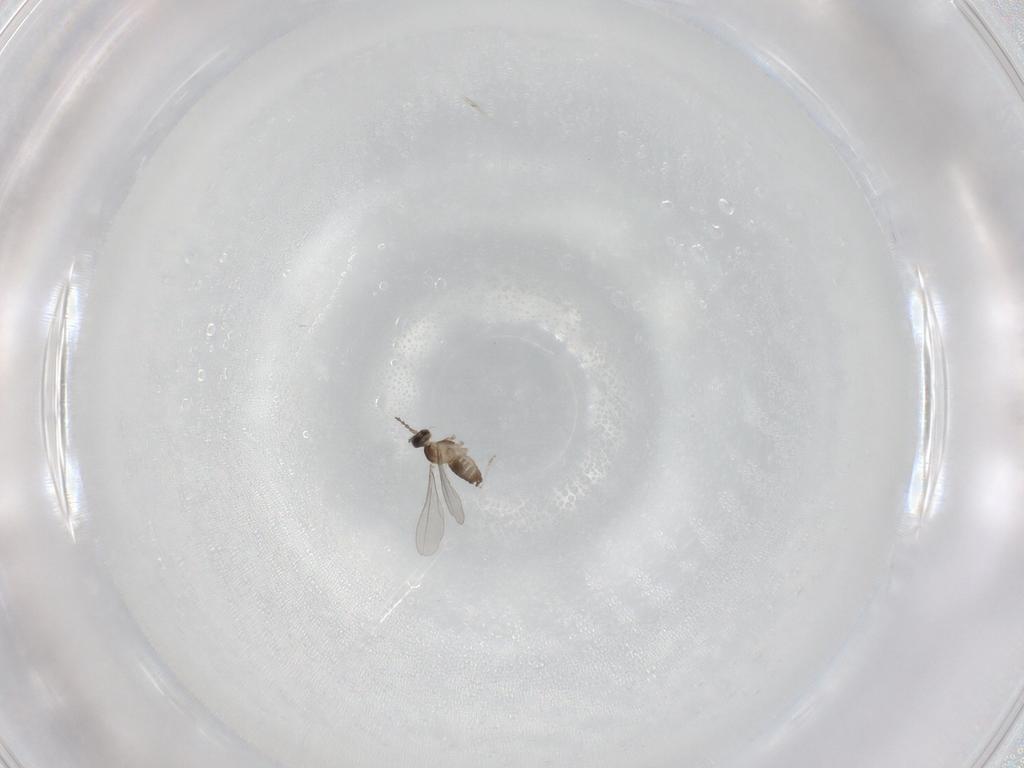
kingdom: Animalia
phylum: Arthropoda
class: Insecta
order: Diptera
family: Cecidomyiidae
